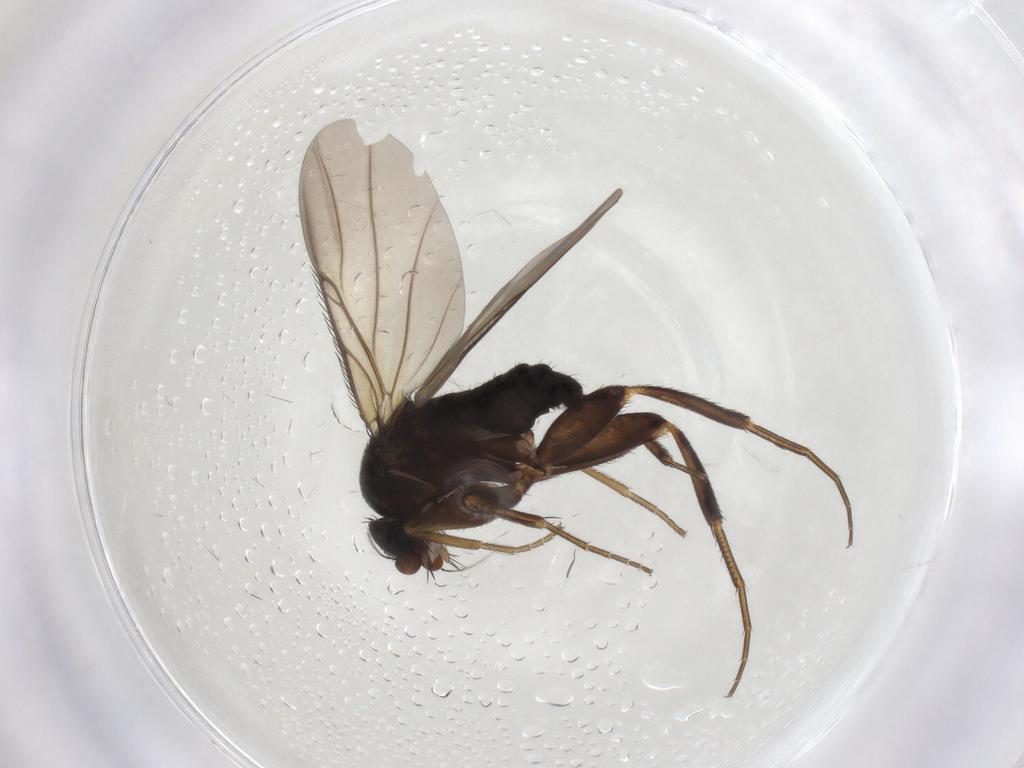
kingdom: Animalia
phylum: Arthropoda
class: Insecta
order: Diptera
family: Phoridae
